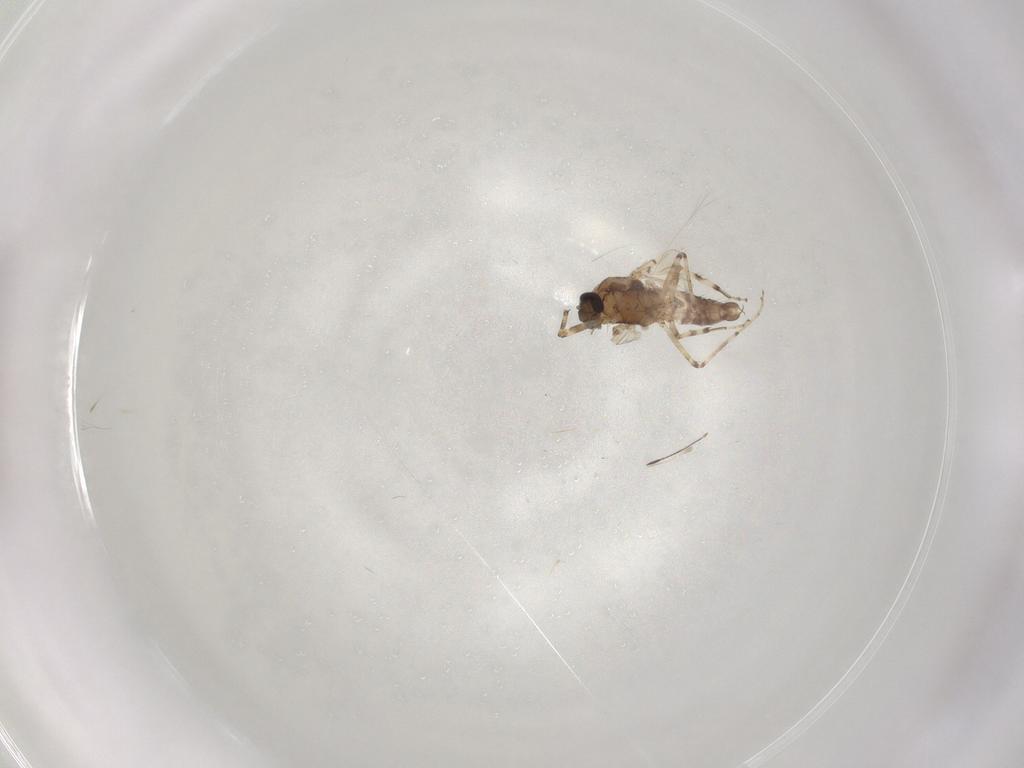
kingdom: Animalia
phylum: Arthropoda
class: Insecta
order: Diptera
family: Ceratopogonidae
